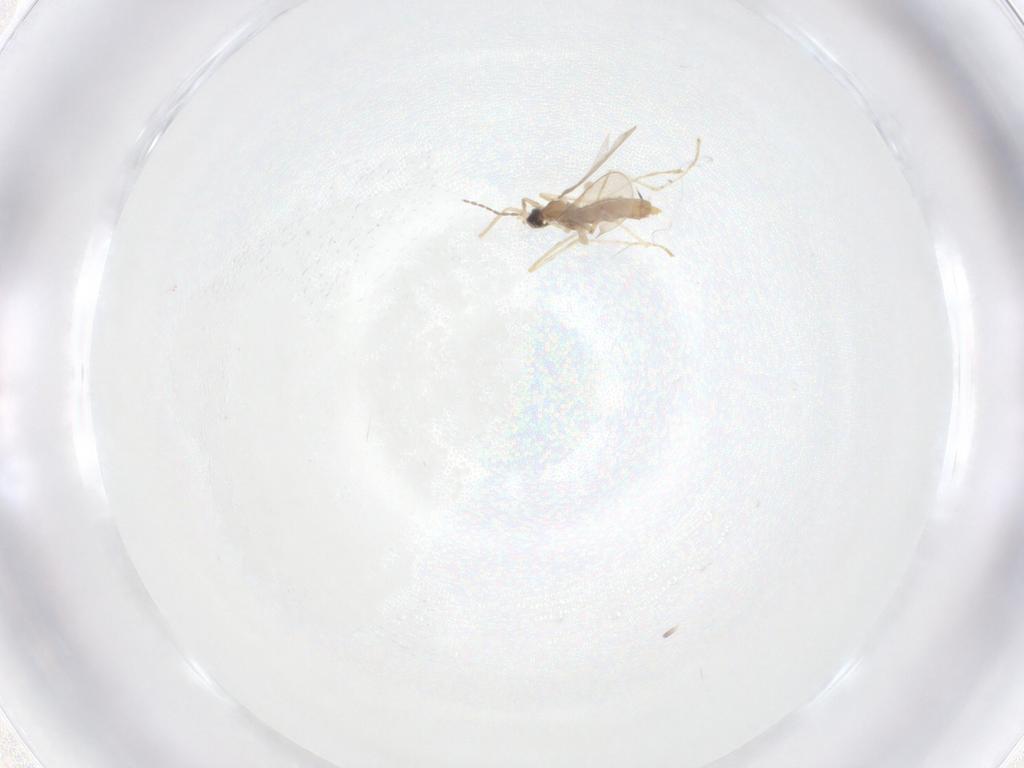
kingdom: Animalia
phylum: Arthropoda
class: Insecta
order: Diptera
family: Cecidomyiidae
